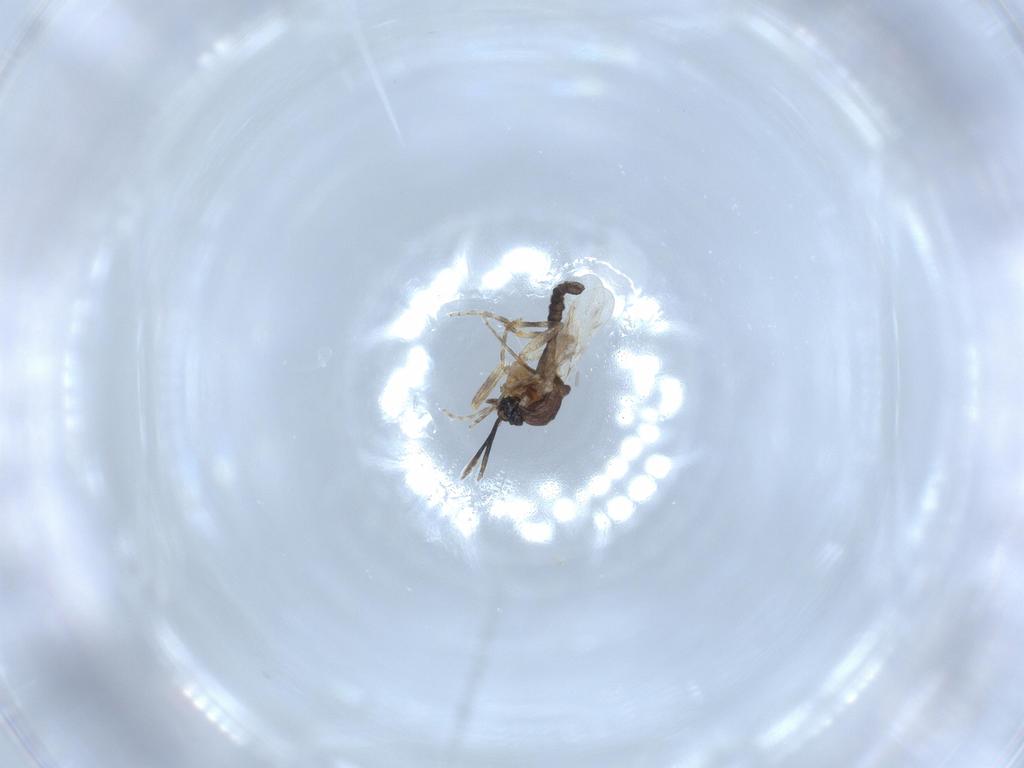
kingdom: Animalia
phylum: Arthropoda
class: Insecta
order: Diptera
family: Ceratopogonidae
